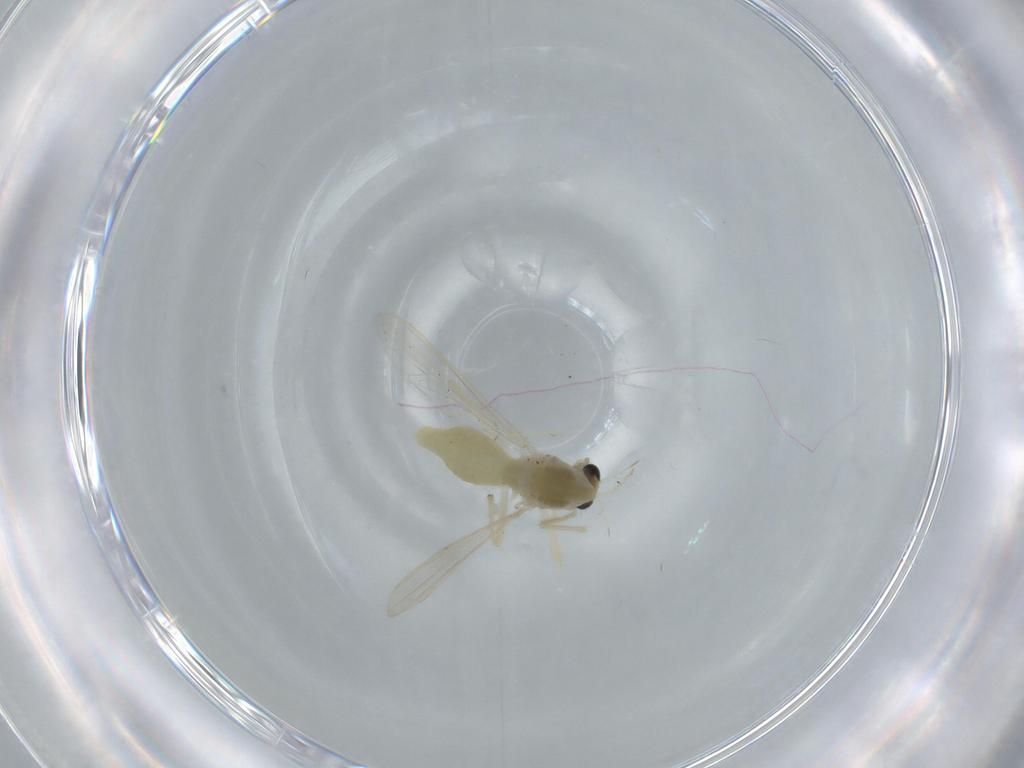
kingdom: Animalia
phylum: Arthropoda
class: Insecta
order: Diptera
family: Chironomidae
